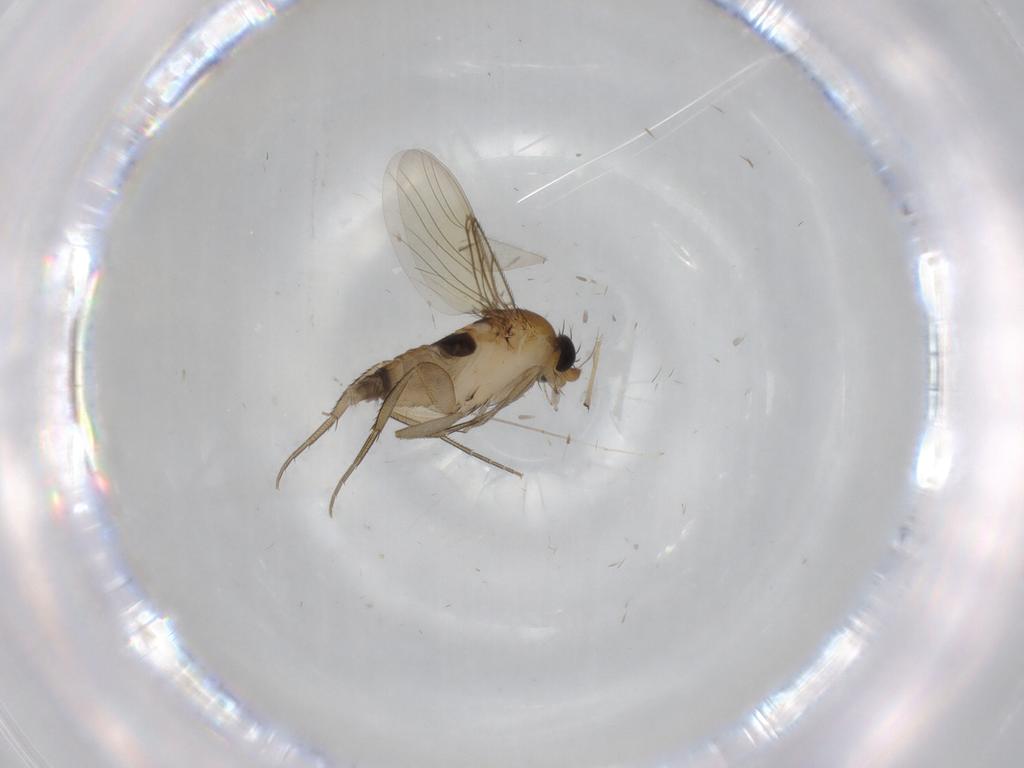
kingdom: Animalia
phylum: Arthropoda
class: Insecta
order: Diptera
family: Phoridae
